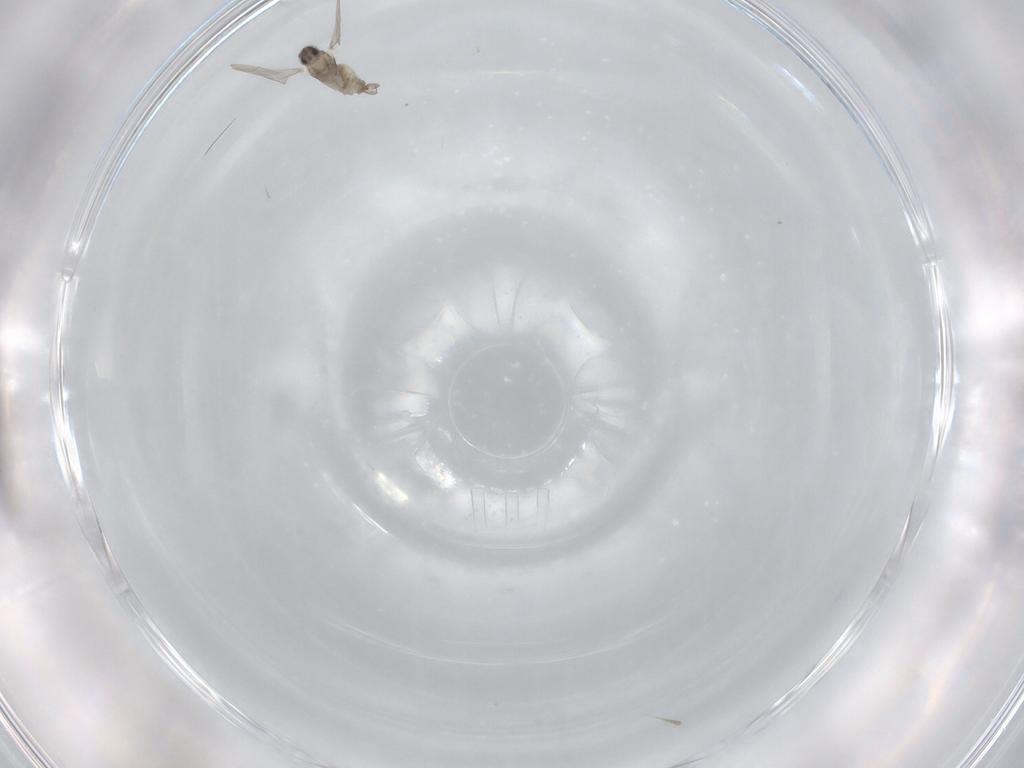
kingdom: Animalia
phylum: Arthropoda
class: Insecta
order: Diptera
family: Cecidomyiidae
